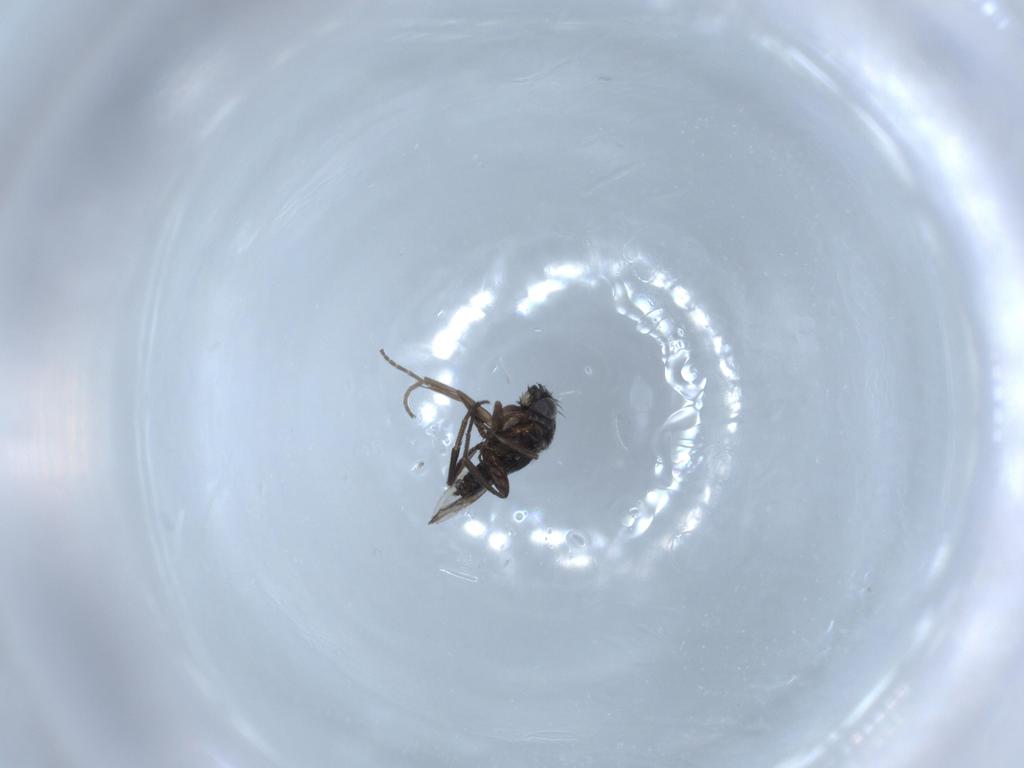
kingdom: Animalia
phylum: Arthropoda
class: Insecta
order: Diptera
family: Phoridae
